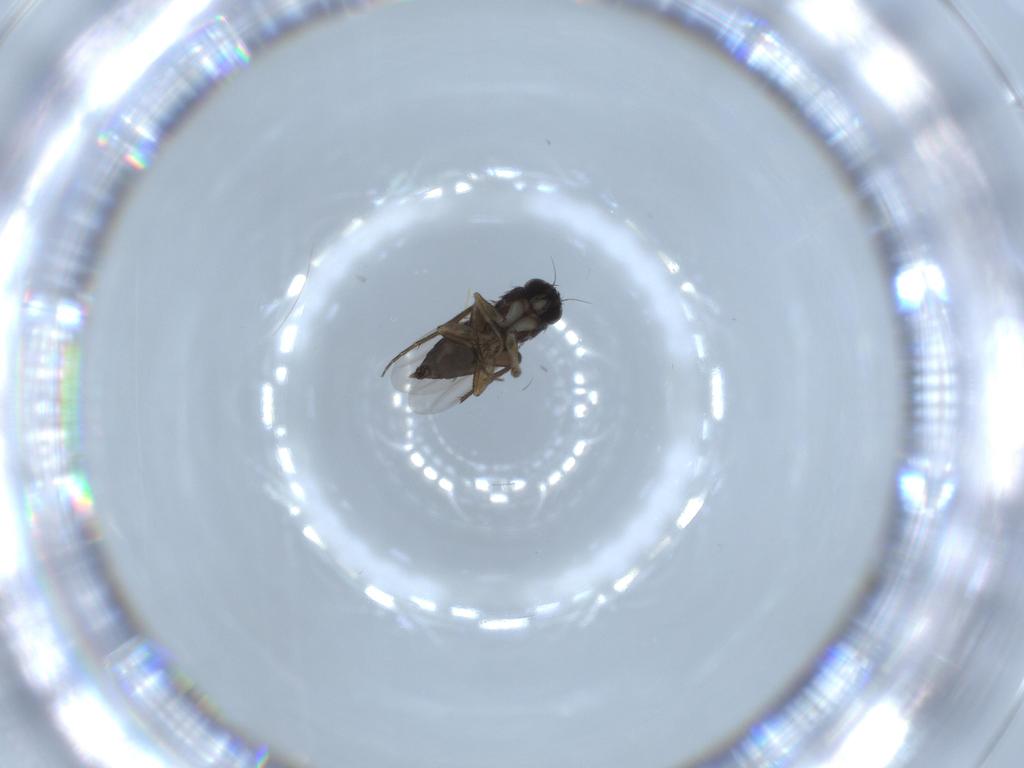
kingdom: Animalia
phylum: Arthropoda
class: Insecta
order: Diptera
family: Phoridae
